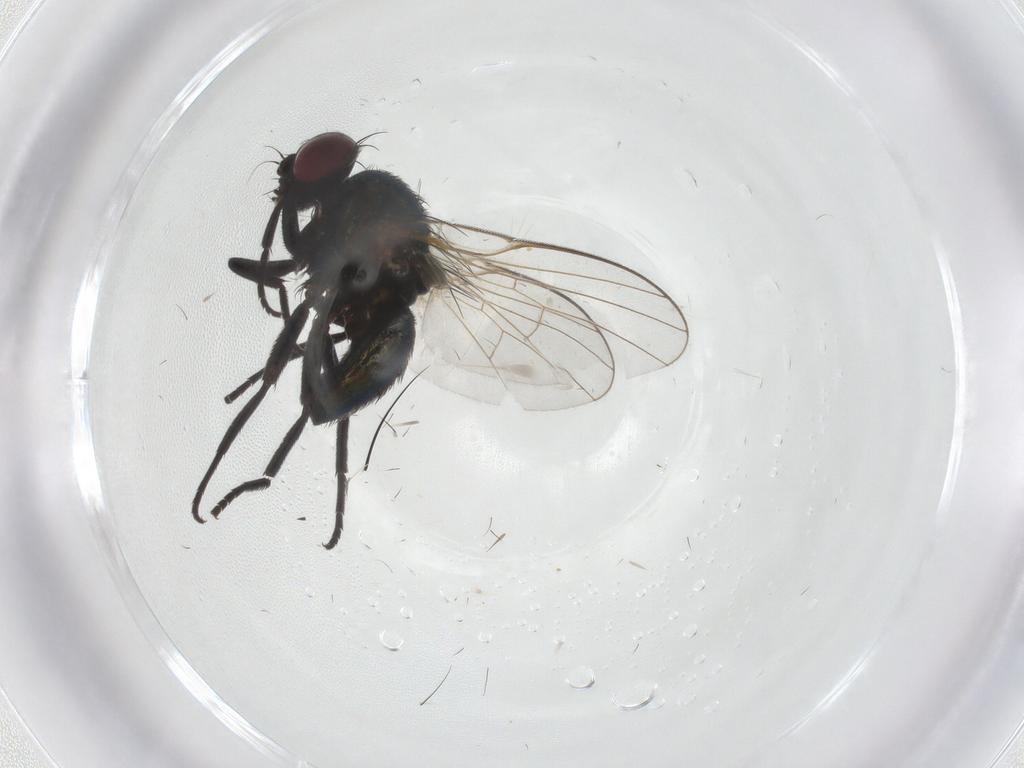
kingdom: Animalia
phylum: Arthropoda
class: Insecta
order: Diptera
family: Agromyzidae
